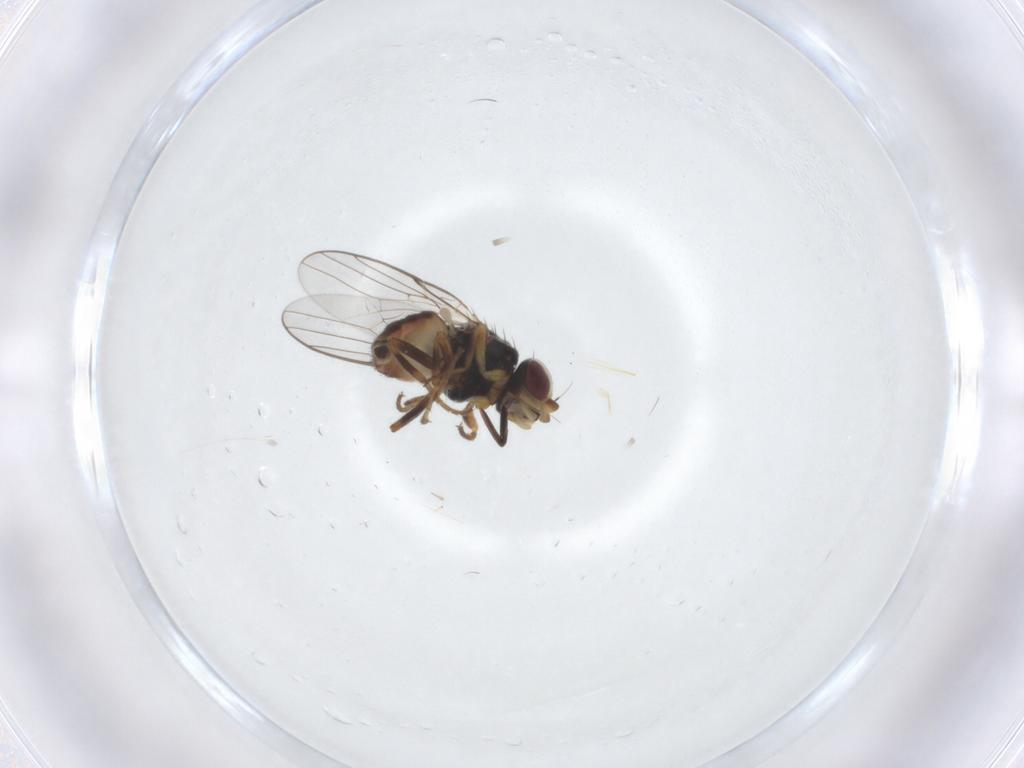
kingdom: Animalia
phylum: Arthropoda
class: Insecta
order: Diptera
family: Chloropidae
